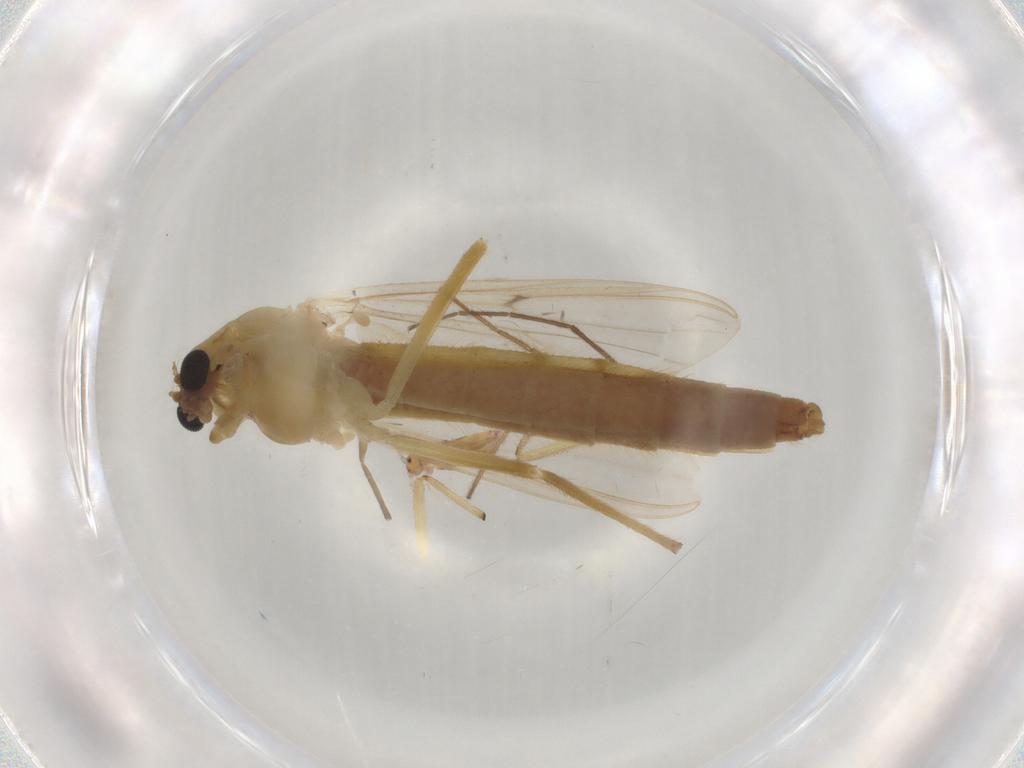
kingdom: Animalia
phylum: Arthropoda
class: Insecta
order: Diptera
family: Chironomidae
